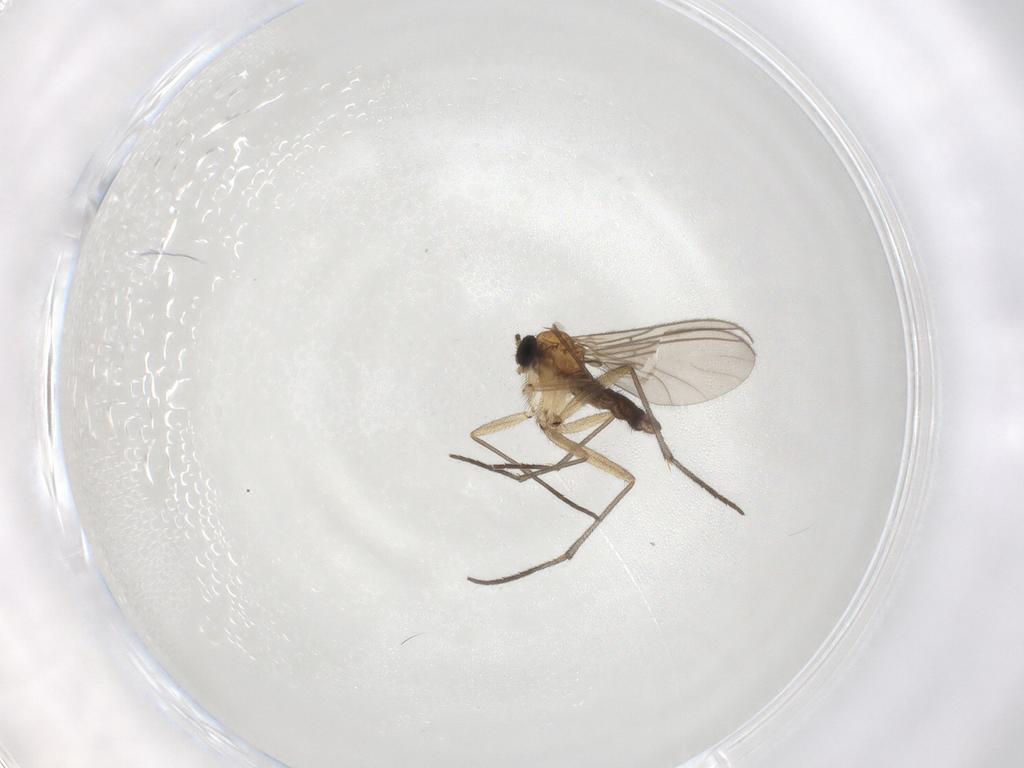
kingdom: Animalia
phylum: Arthropoda
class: Insecta
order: Diptera
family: Sciaridae
